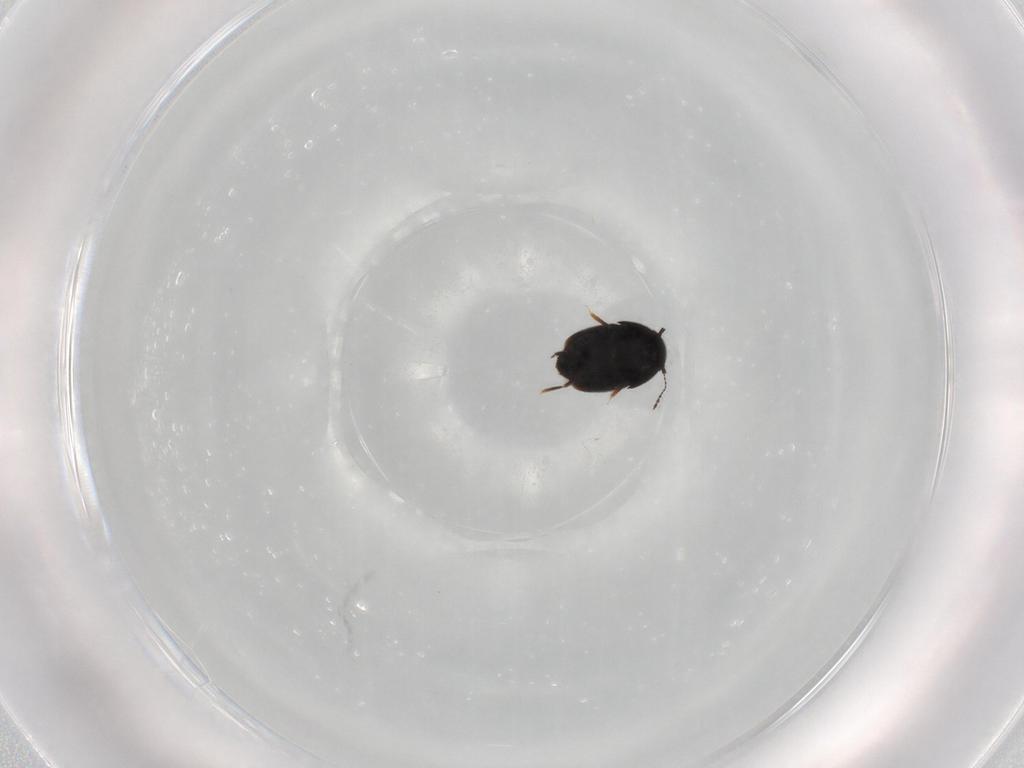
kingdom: Animalia
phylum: Arthropoda
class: Insecta
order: Coleoptera
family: Ptiliidae
